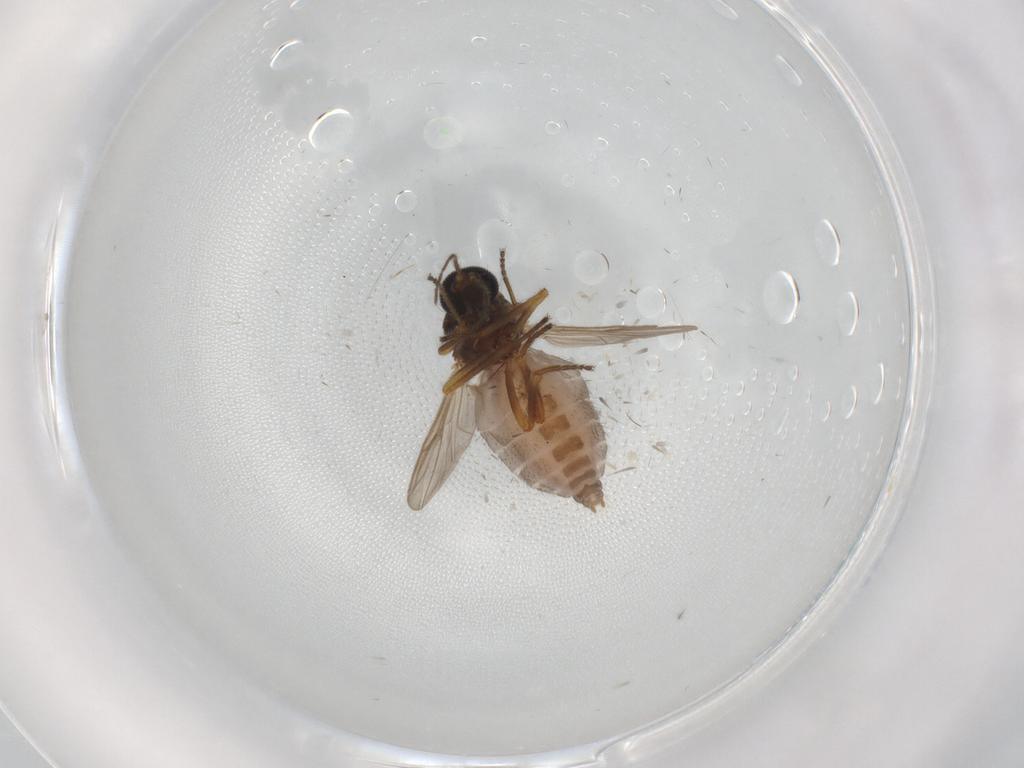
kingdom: Animalia
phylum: Arthropoda
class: Insecta
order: Diptera
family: Ceratopogonidae
